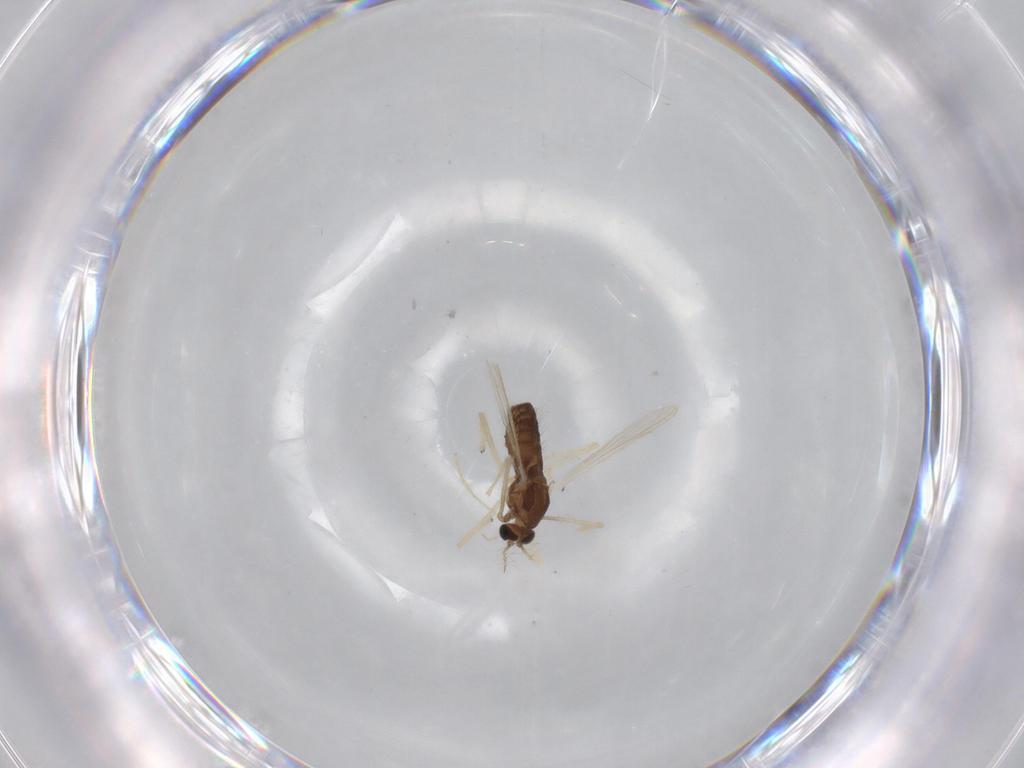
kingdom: Animalia
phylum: Arthropoda
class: Insecta
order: Diptera
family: Chironomidae
